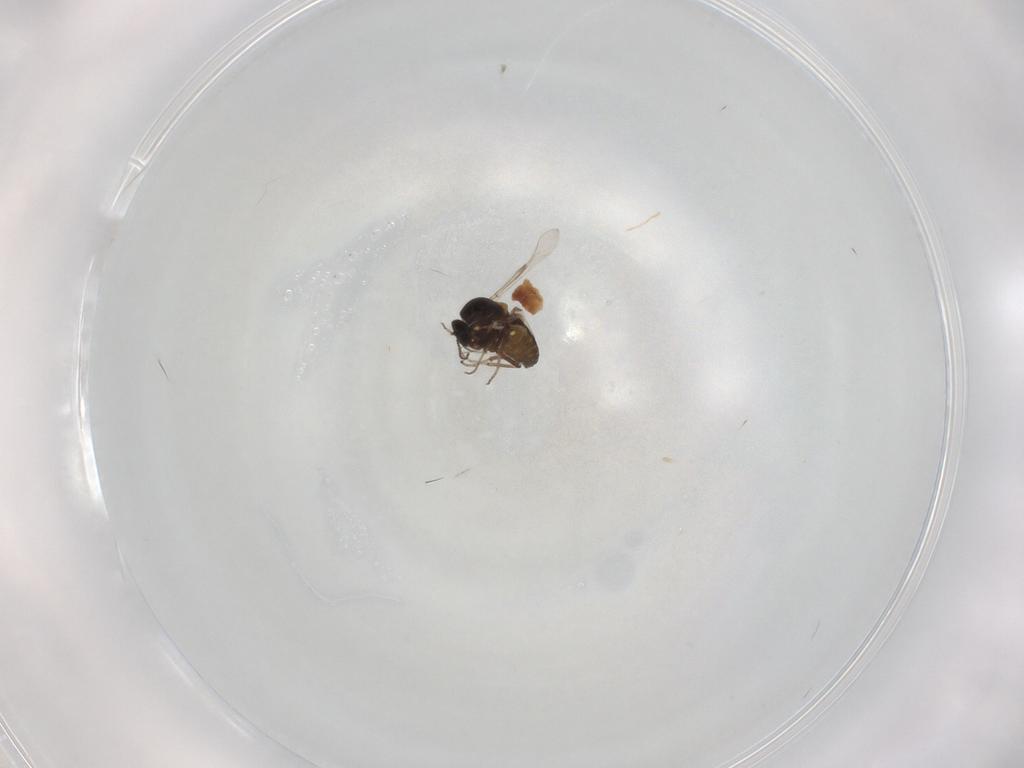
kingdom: Animalia
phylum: Arthropoda
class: Insecta
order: Diptera
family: Ceratopogonidae
